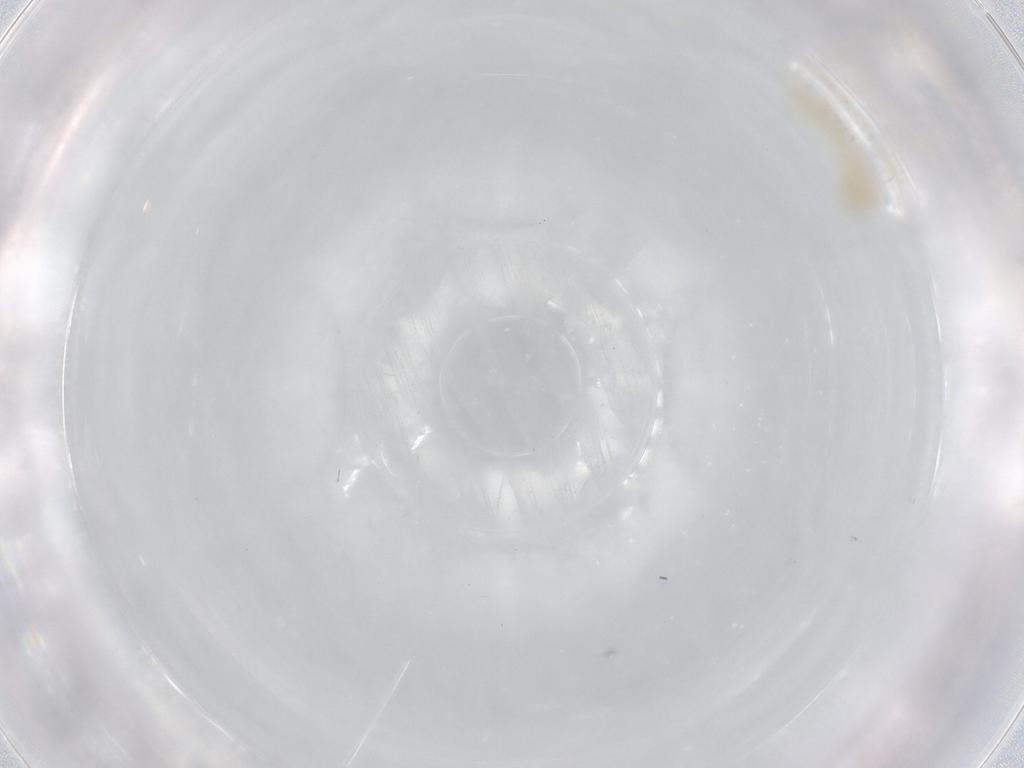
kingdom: Animalia
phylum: Arthropoda
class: Arachnida
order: Trombidiformes
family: Erythraeidae
